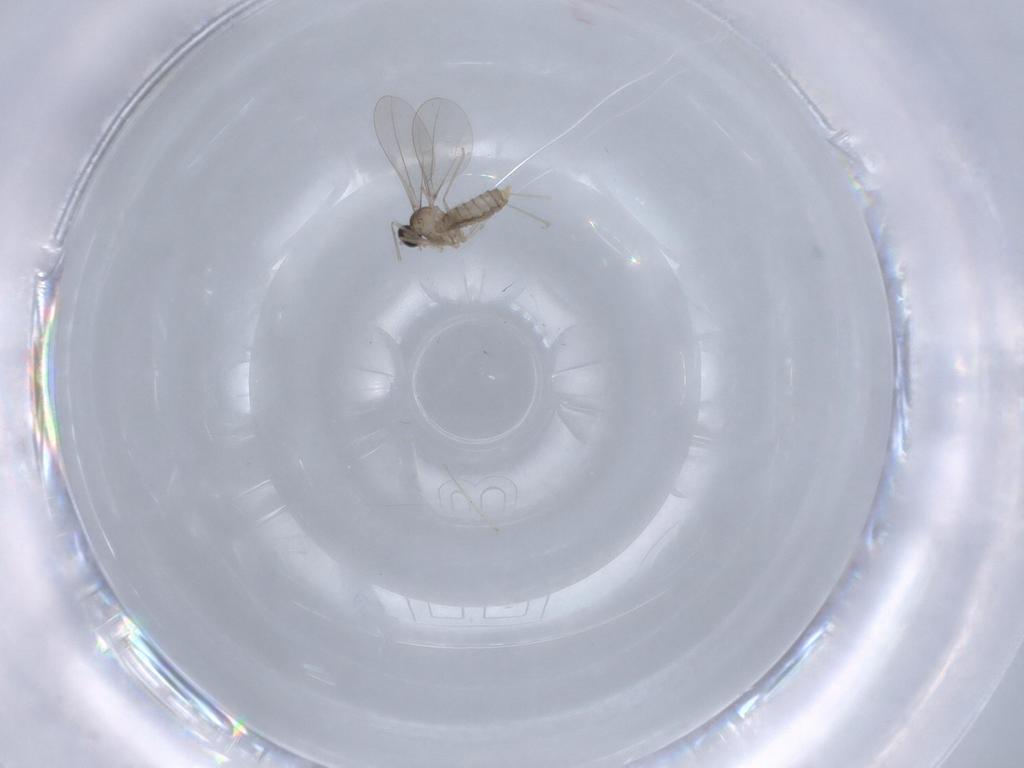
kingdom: Animalia
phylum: Arthropoda
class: Insecta
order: Diptera
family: Cecidomyiidae
